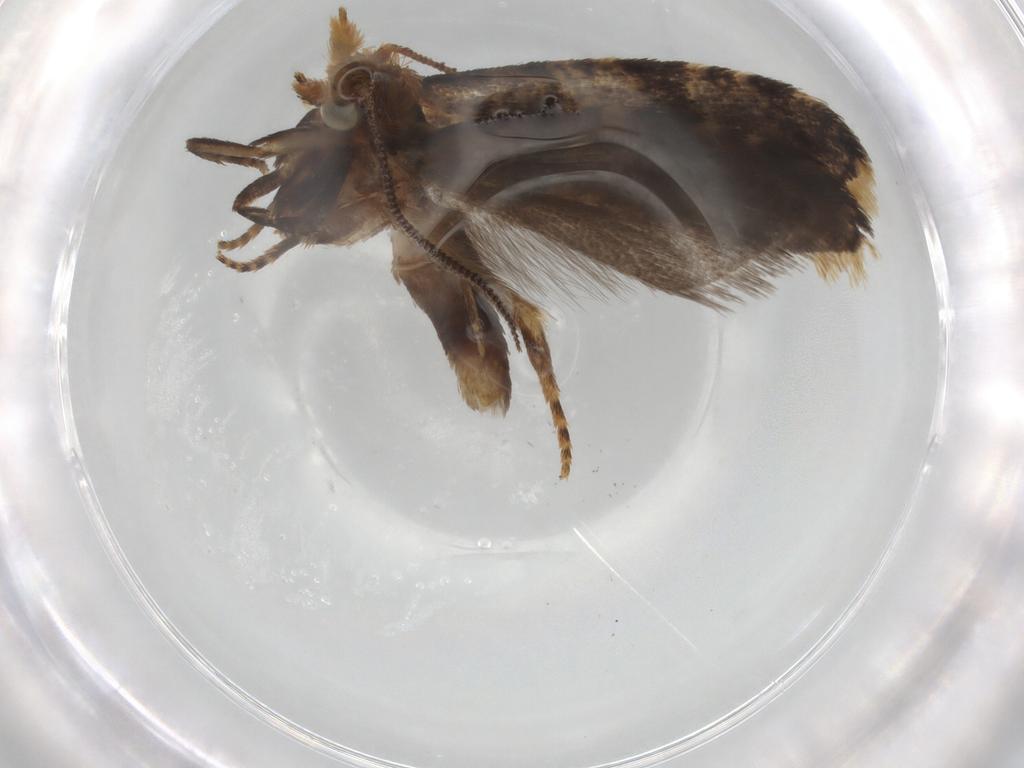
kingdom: Animalia
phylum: Arthropoda
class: Insecta
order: Lepidoptera
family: Tortricidae
